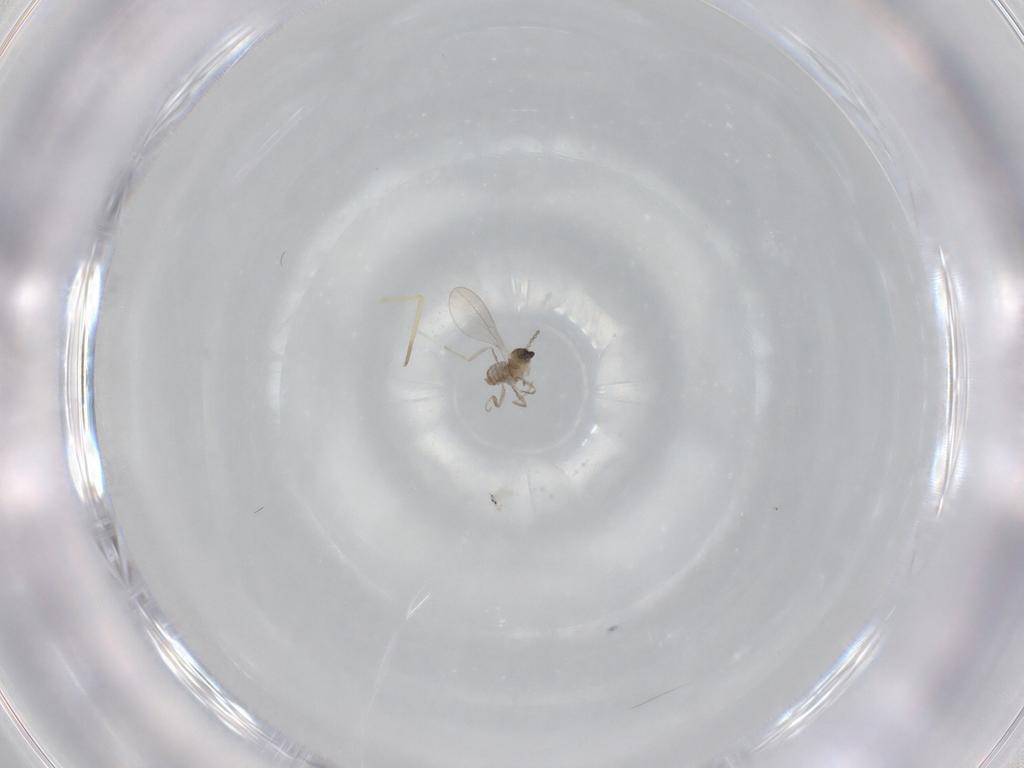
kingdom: Animalia
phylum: Arthropoda
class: Insecta
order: Diptera
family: Cecidomyiidae
